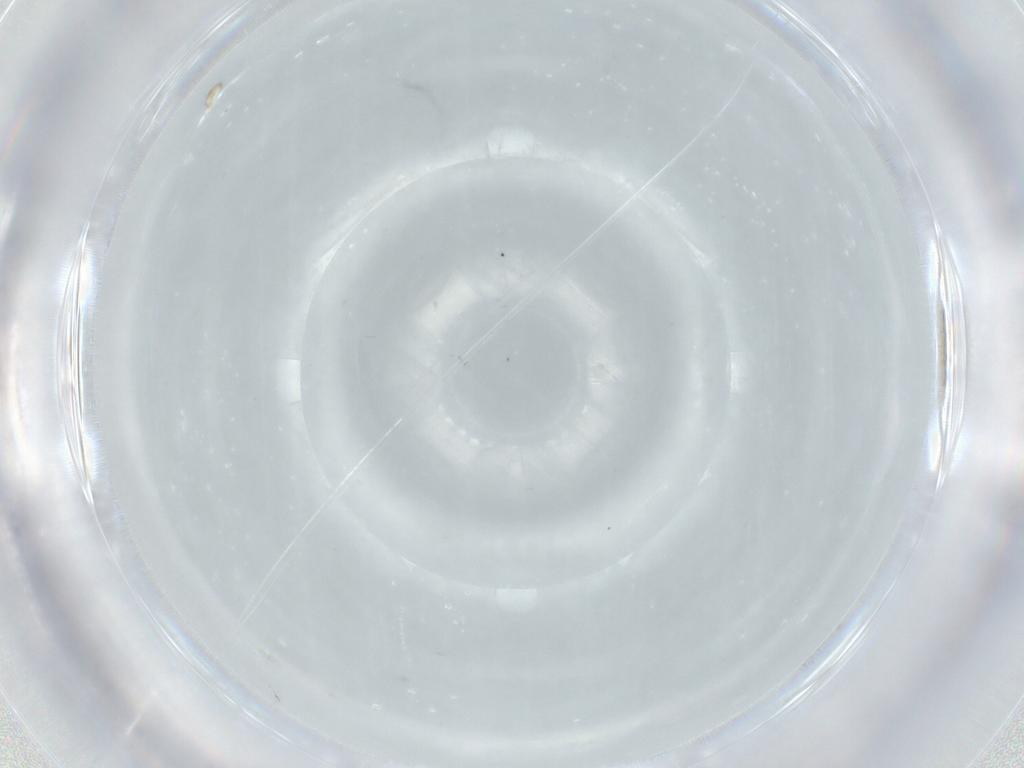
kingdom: Animalia
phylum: Arthropoda
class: Insecta
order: Diptera
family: Cecidomyiidae
